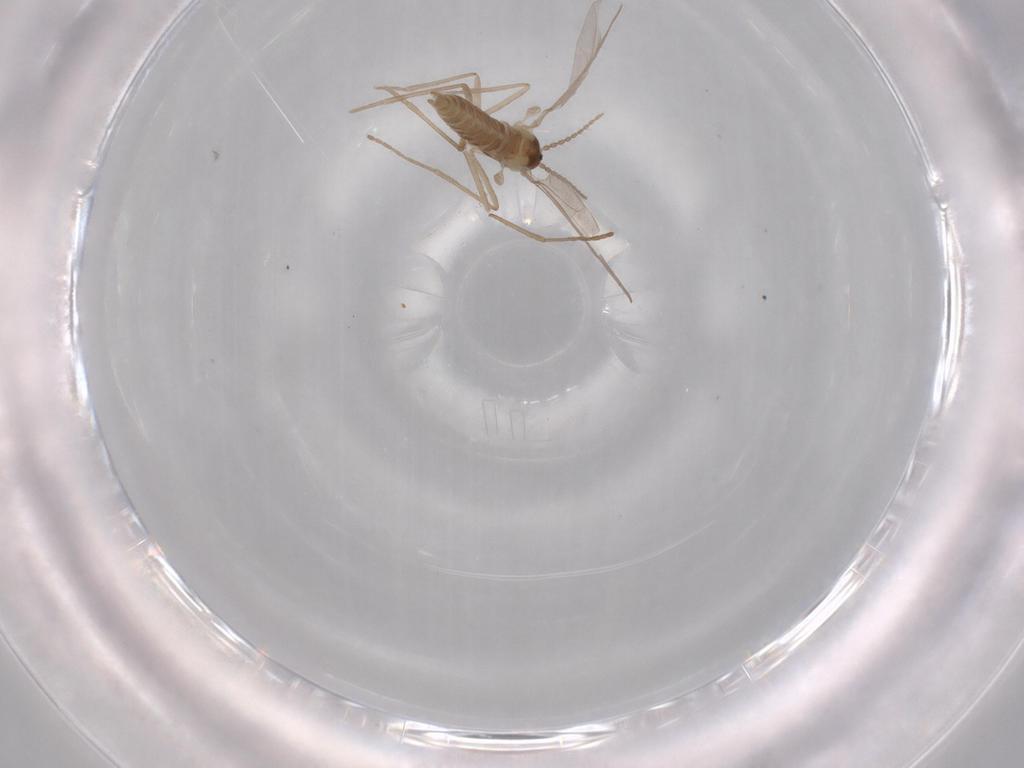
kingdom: Animalia
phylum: Arthropoda
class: Insecta
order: Diptera
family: Cecidomyiidae
